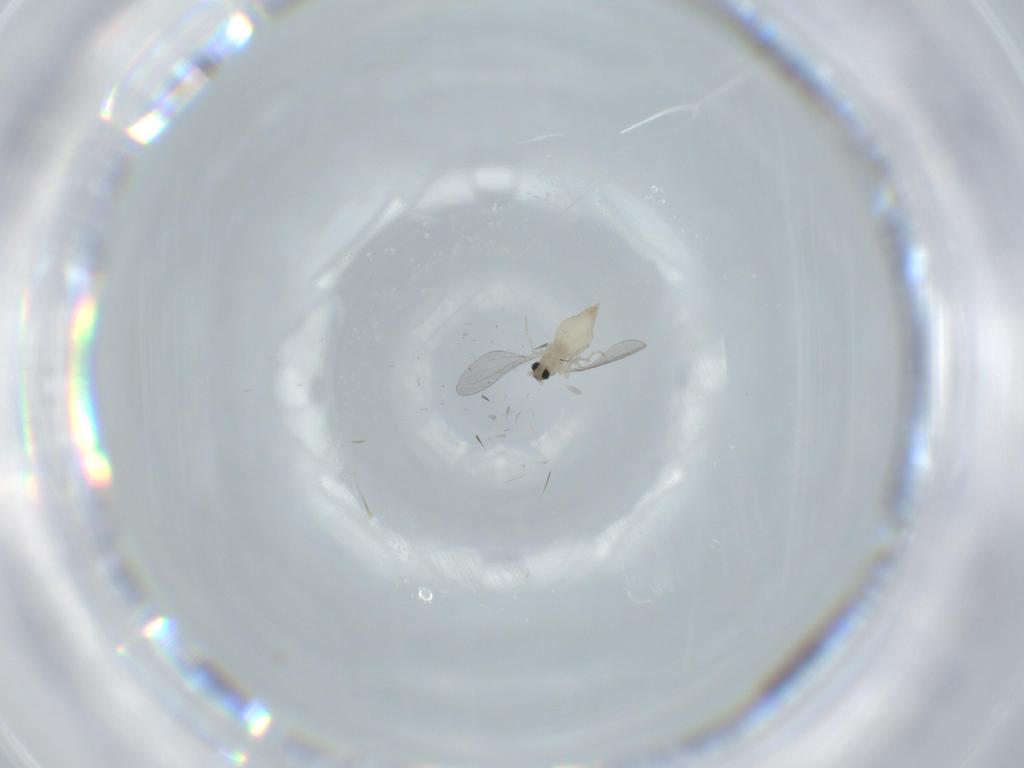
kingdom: Animalia
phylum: Arthropoda
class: Insecta
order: Diptera
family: Cecidomyiidae
